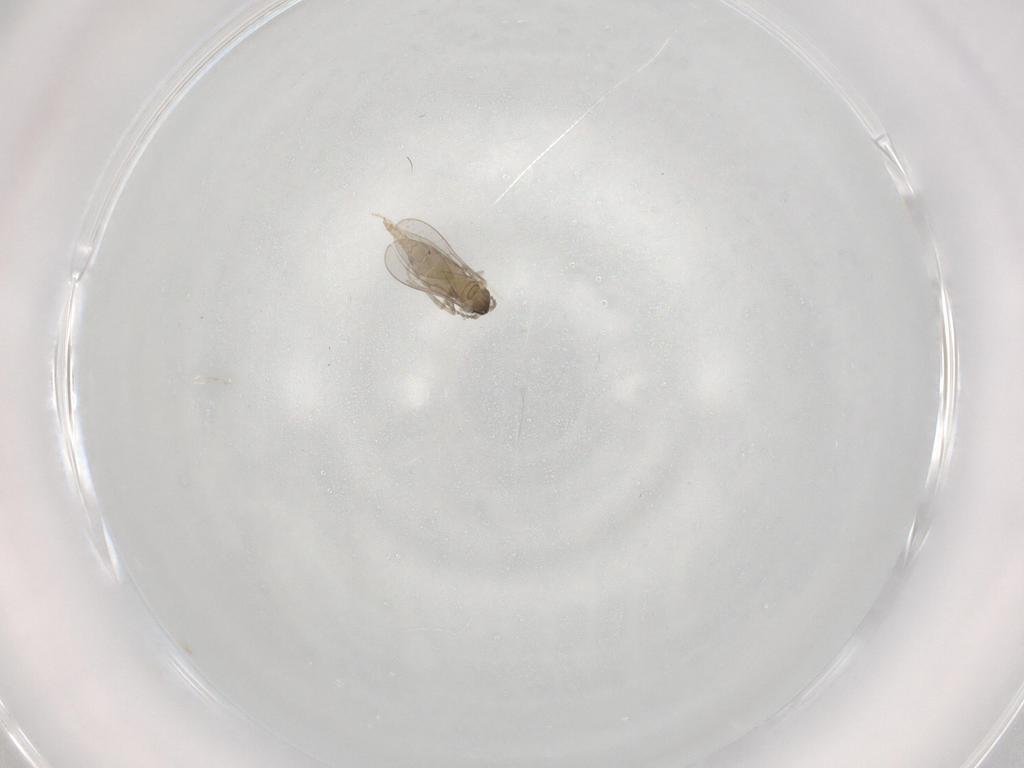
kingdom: Animalia
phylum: Arthropoda
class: Insecta
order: Diptera
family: Cecidomyiidae
